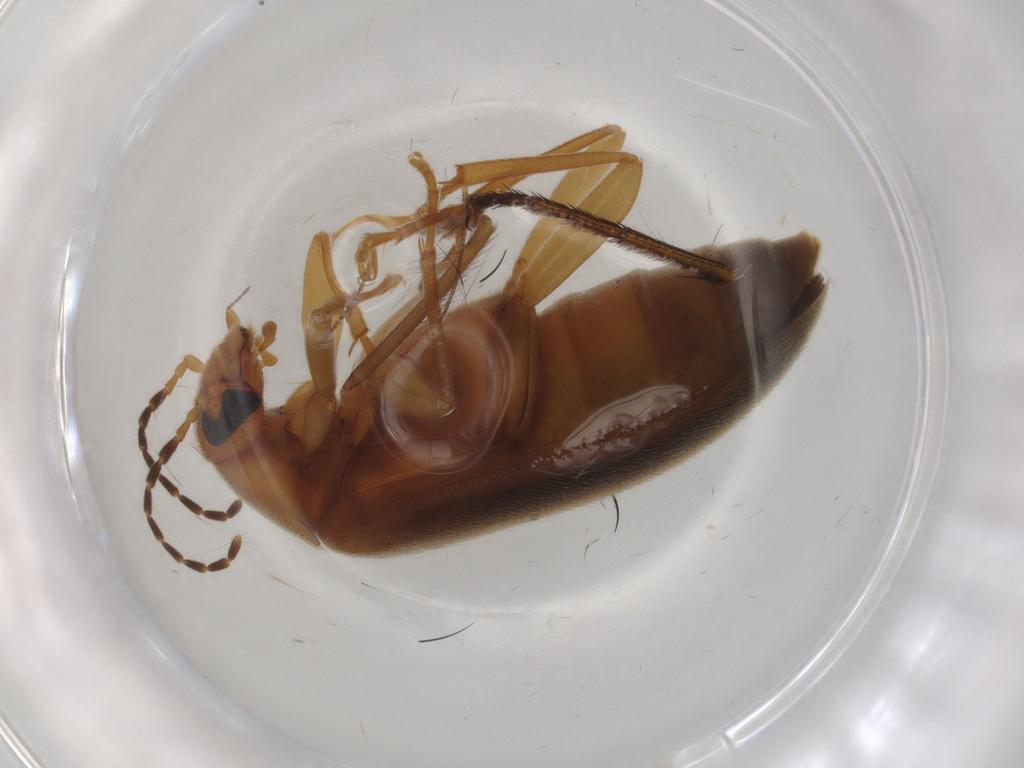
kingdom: Animalia
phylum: Arthropoda
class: Insecta
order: Coleoptera
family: Scraptiidae
